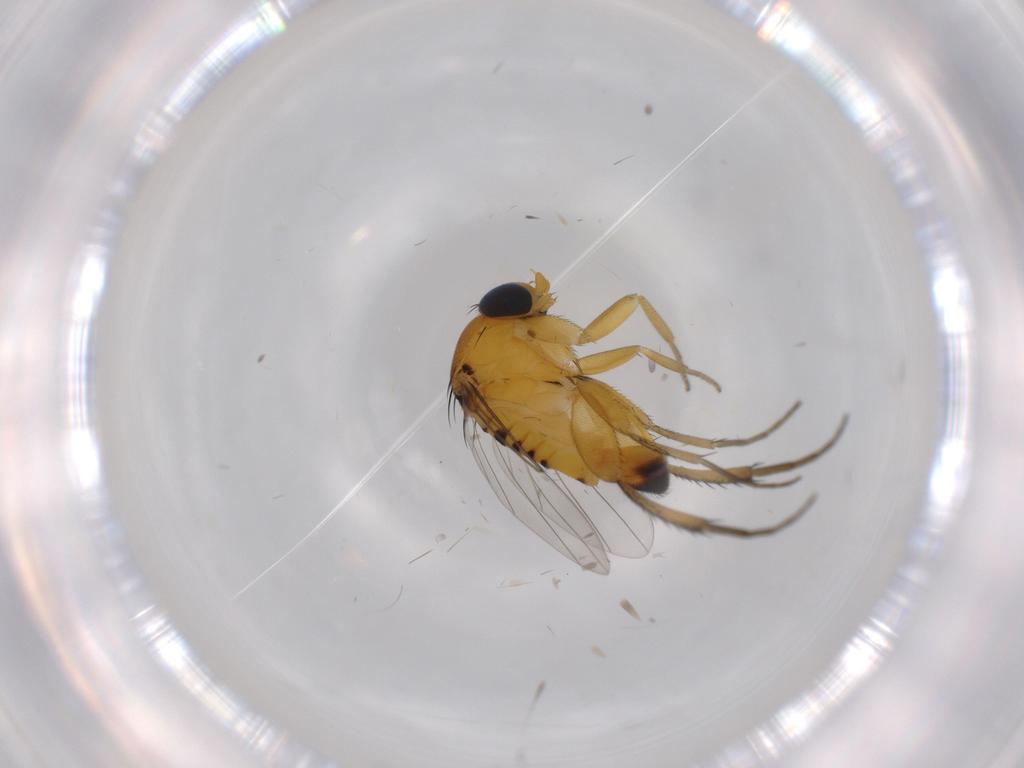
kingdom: Animalia
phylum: Arthropoda
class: Insecta
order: Diptera
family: Phoridae
